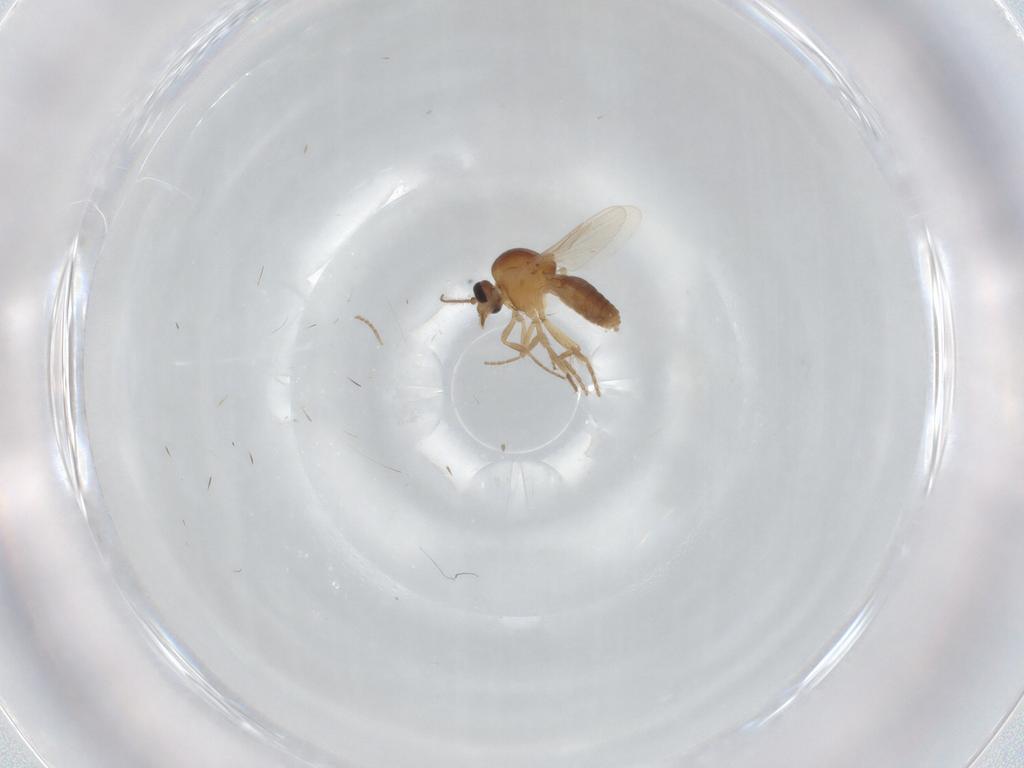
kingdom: Animalia
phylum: Arthropoda
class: Insecta
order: Diptera
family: Ceratopogonidae
